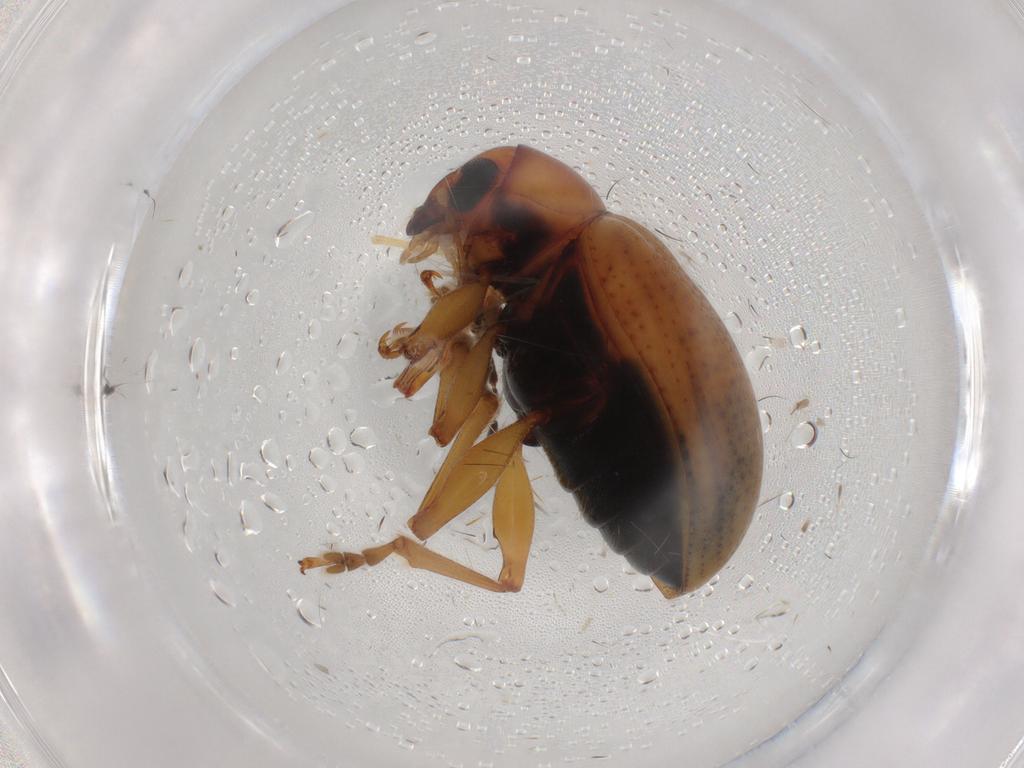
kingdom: Animalia
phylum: Arthropoda
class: Insecta
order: Coleoptera
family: Chrysomelidae
